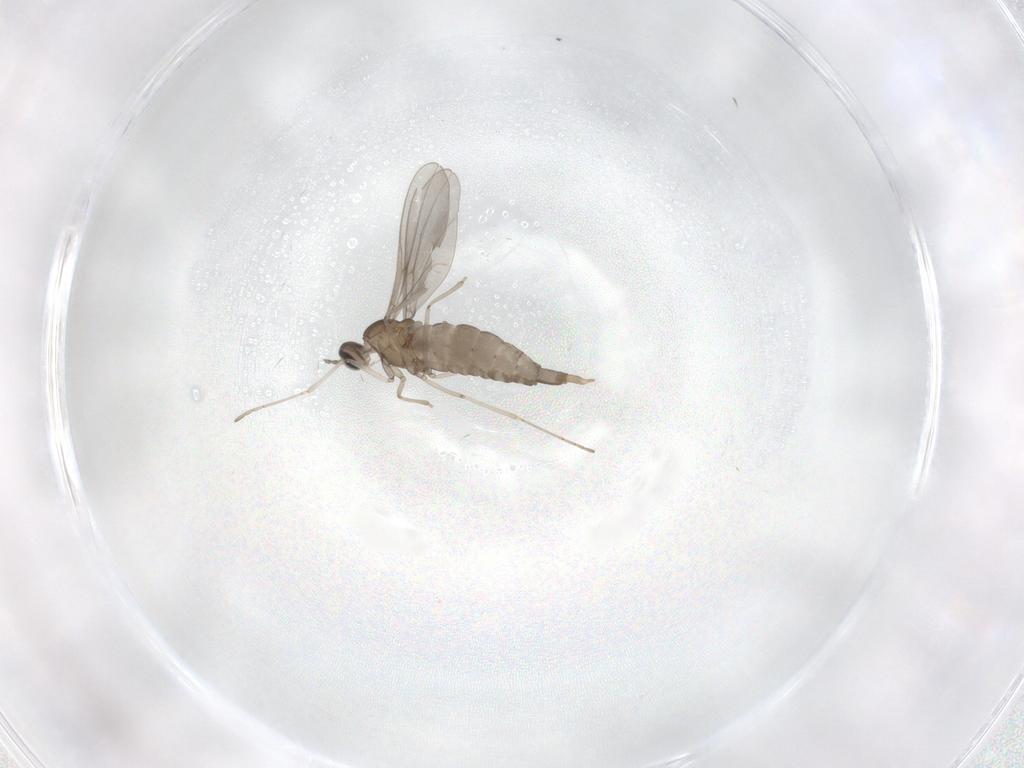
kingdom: Animalia
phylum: Arthropoda
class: Insecta
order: Diptera
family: Cecidomyiidae
